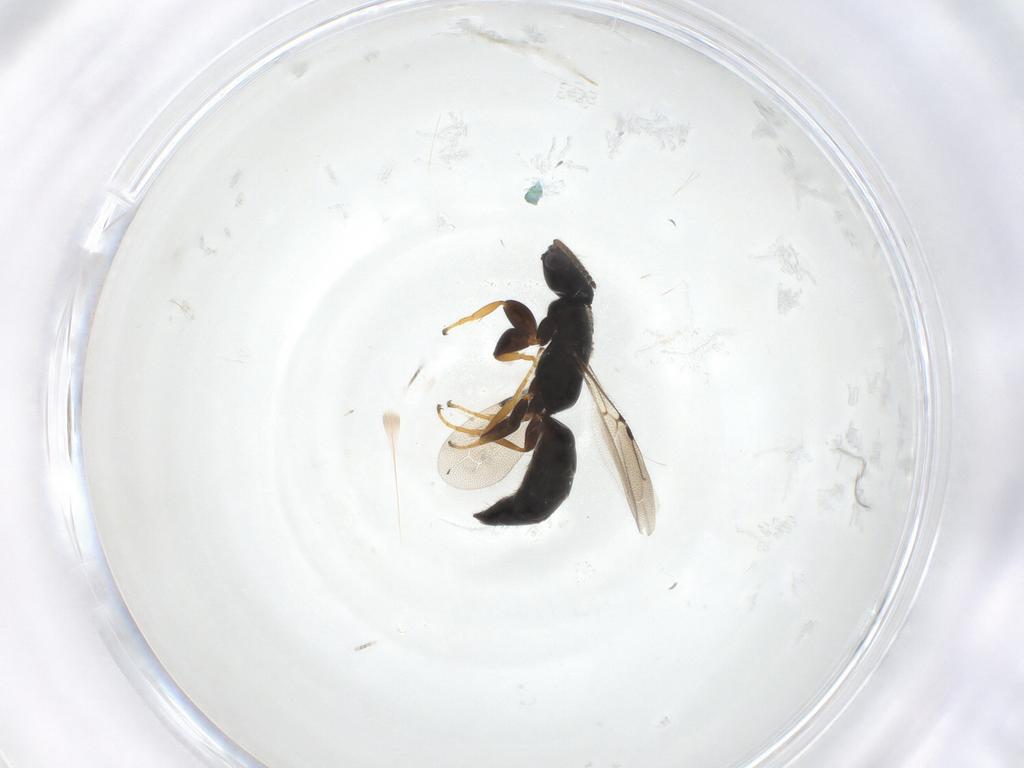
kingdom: Animalia
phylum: Arthropoda
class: Insecta
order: Hymenoptera
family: Bethylidae
